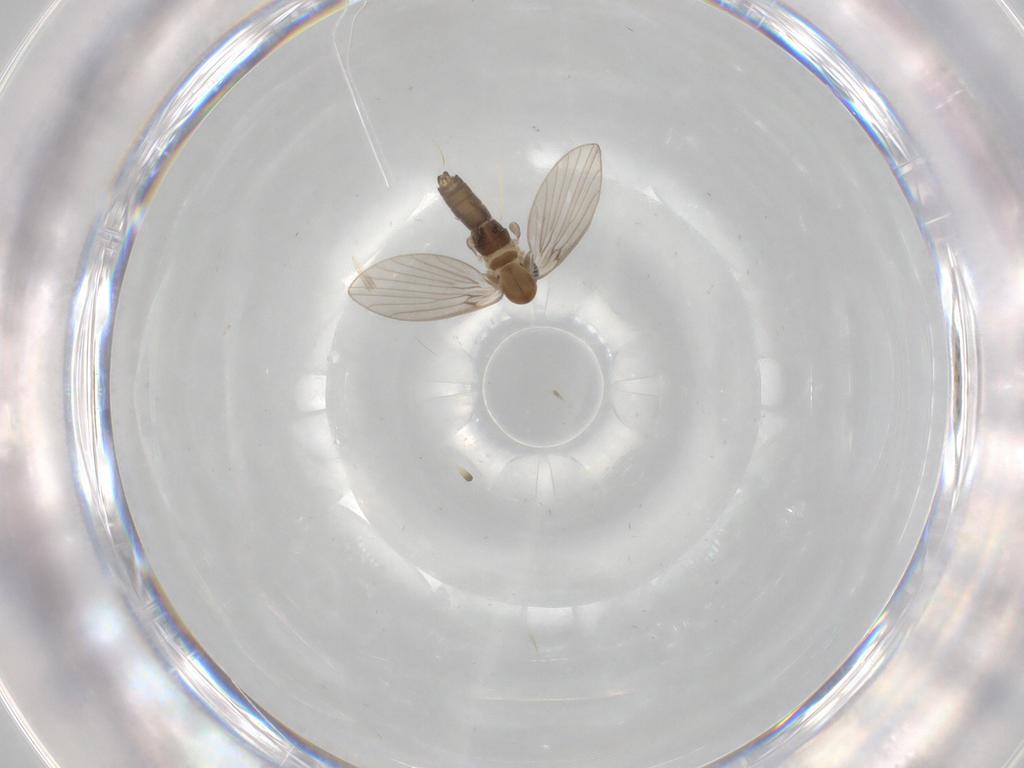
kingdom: Animalia
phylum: Arthropoda
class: Insecta
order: Diptera
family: Psychodidae
